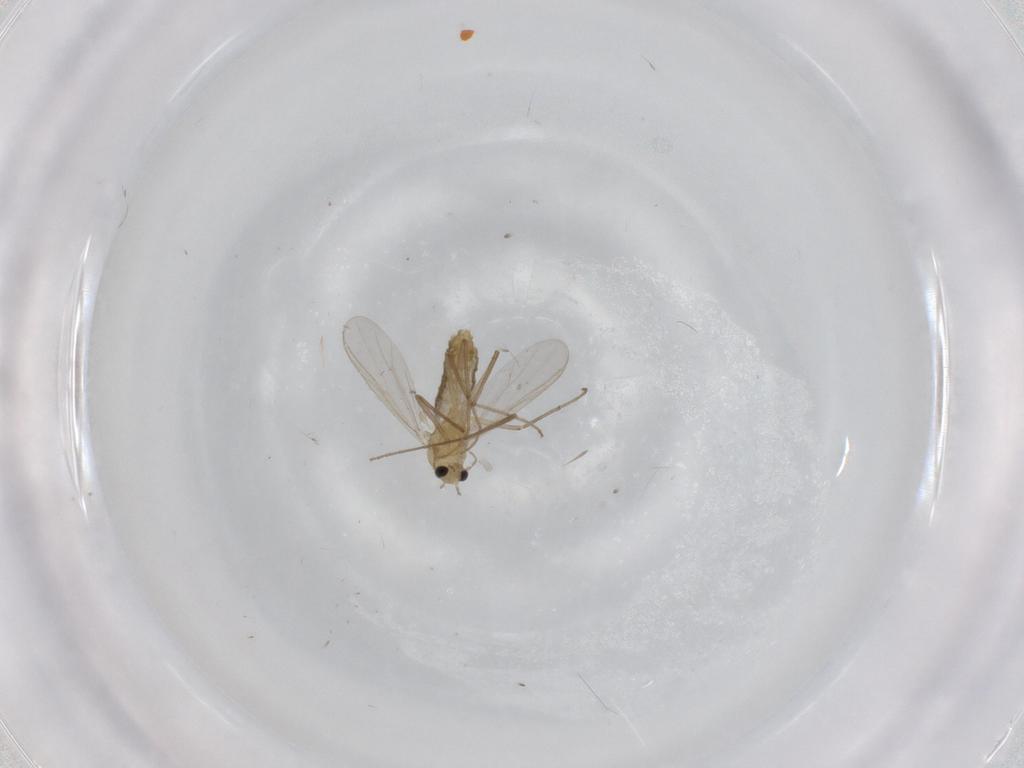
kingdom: Animalia
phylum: Arthropoda
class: Insecta
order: Diptera
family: Chironomidae
